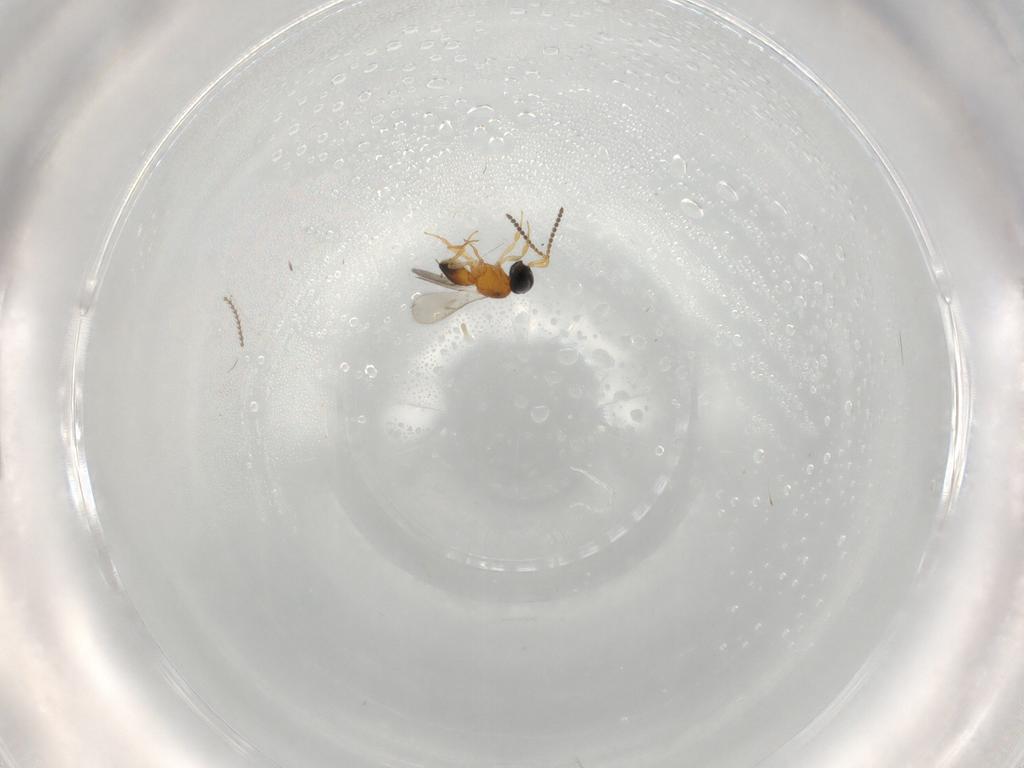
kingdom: Animalia
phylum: Arthropoda
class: Insecta
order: Hymenoptera
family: Scelionidae
